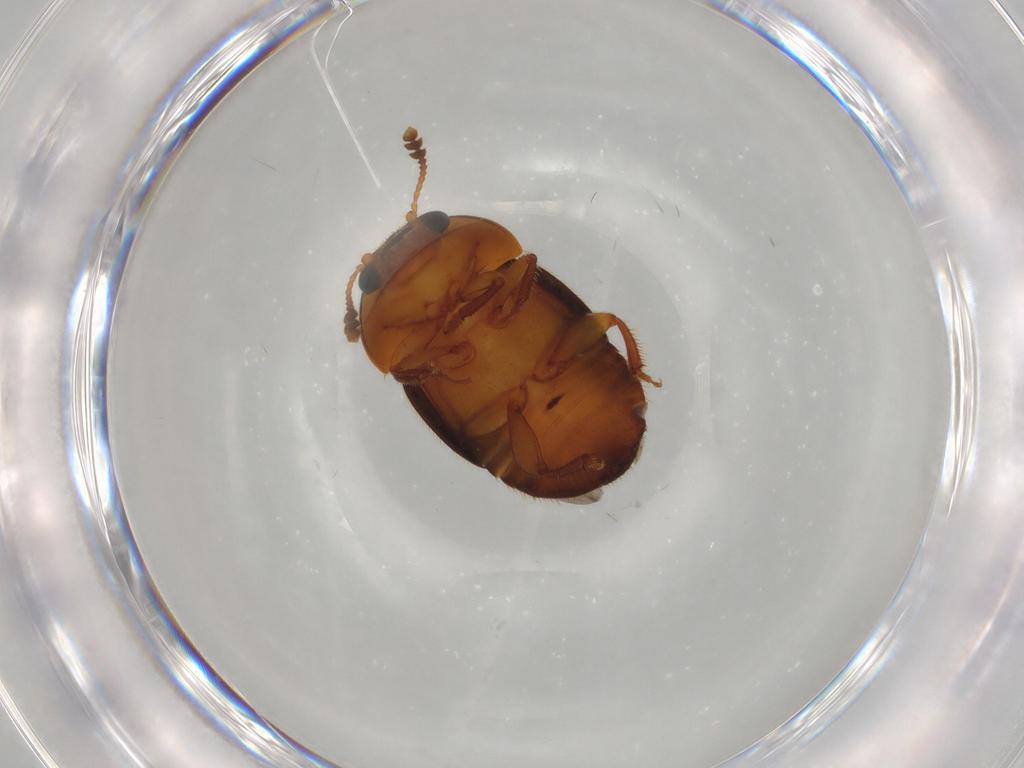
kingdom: Animalia
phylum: Arthropoda
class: Insecta
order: Coleoptera
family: Nitidulidae
